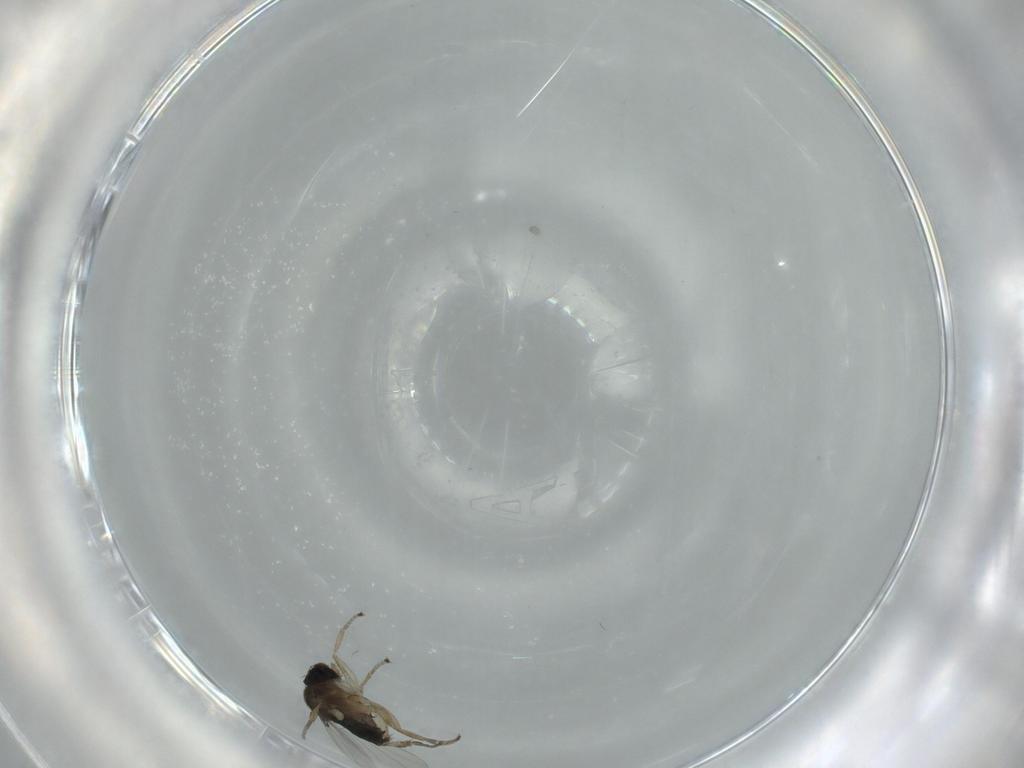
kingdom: Animalia
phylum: Arthropoda
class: Insecta
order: Diptera
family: Phoridae
